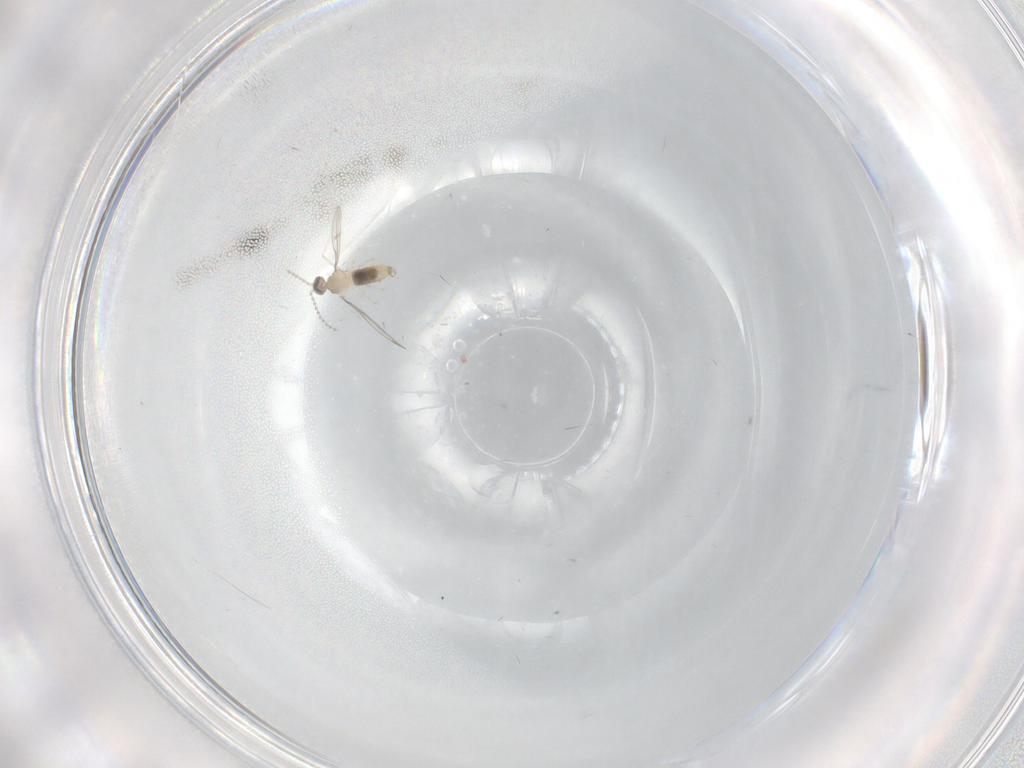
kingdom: Animalia
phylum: Arthropoda
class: Insecta
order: Diptera
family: Cecidomyiidae
